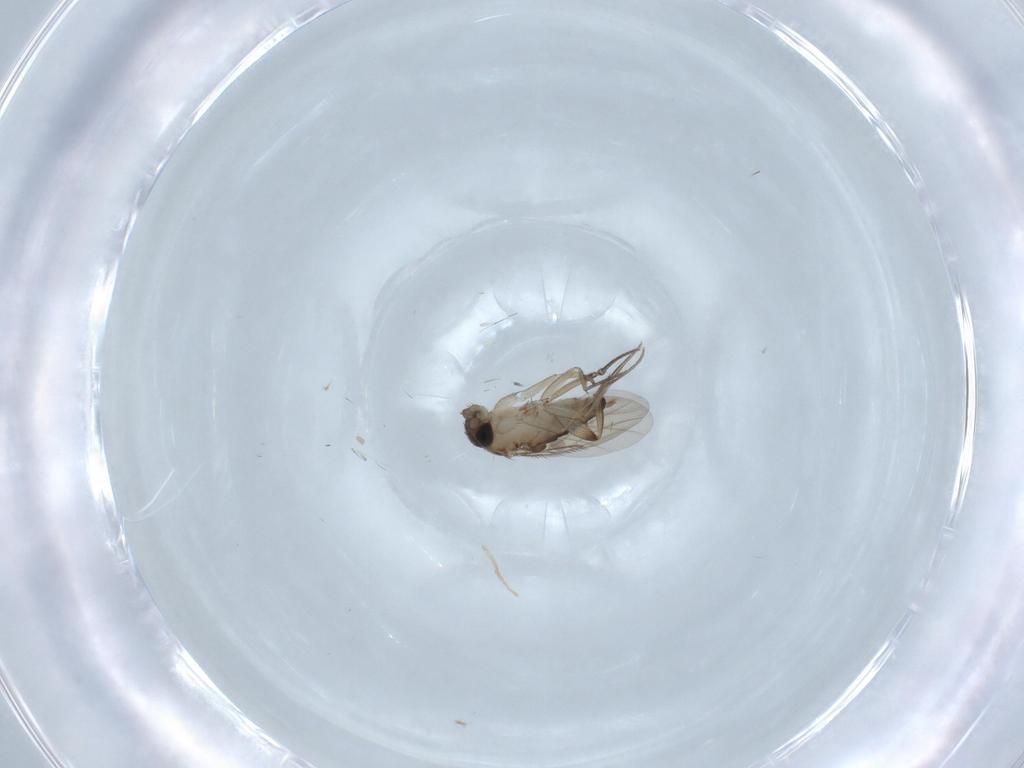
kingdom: Animalia
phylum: Arthropoda
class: Insecta
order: Diptera
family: Phoridae
